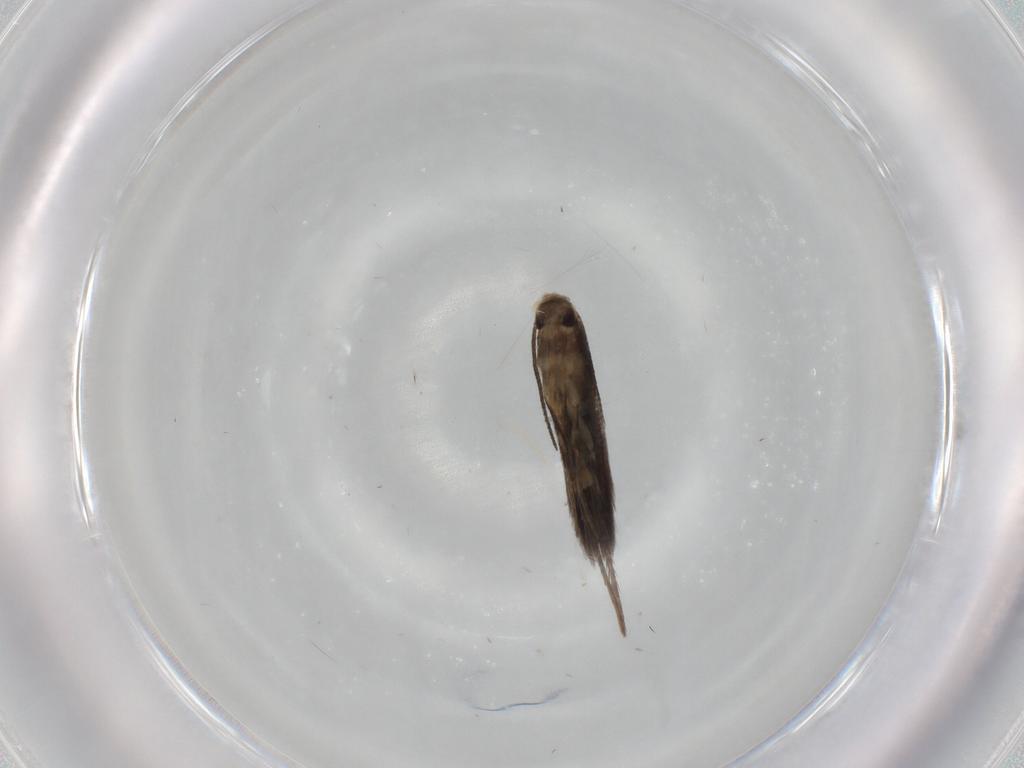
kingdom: Animalia
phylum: Arthropoda
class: Insecta
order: Lepidoptera
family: Pyralidae
